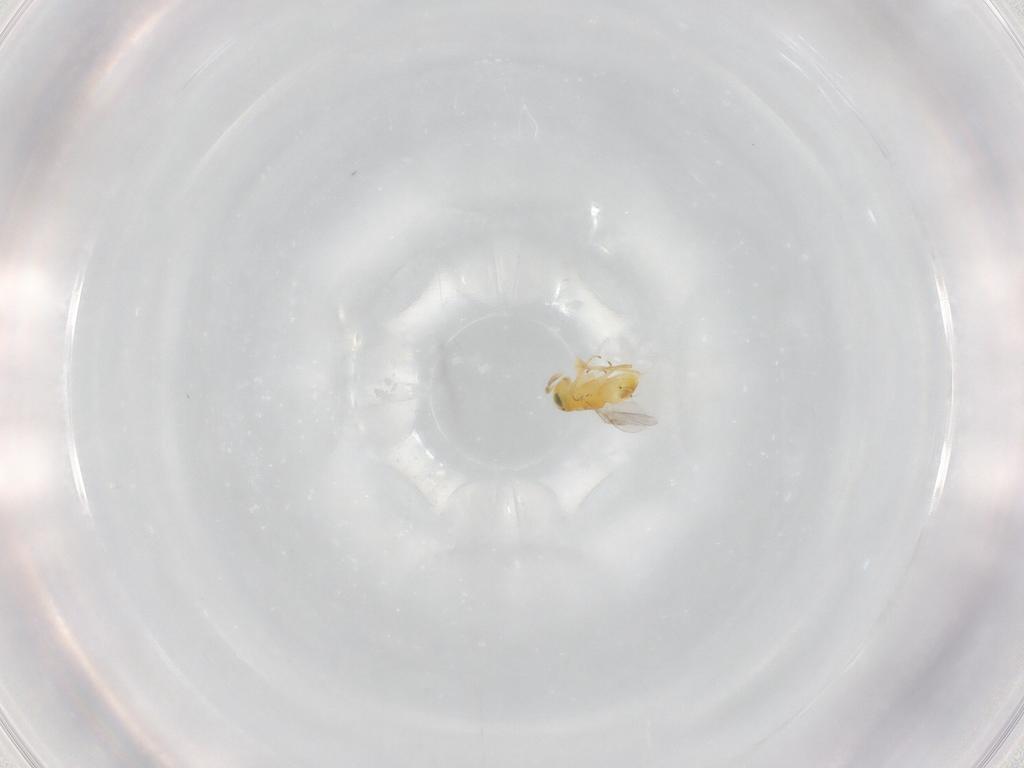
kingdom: Animalia
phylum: Arthropoda
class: Insecta
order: Hymenoptera
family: Encyrtidae
